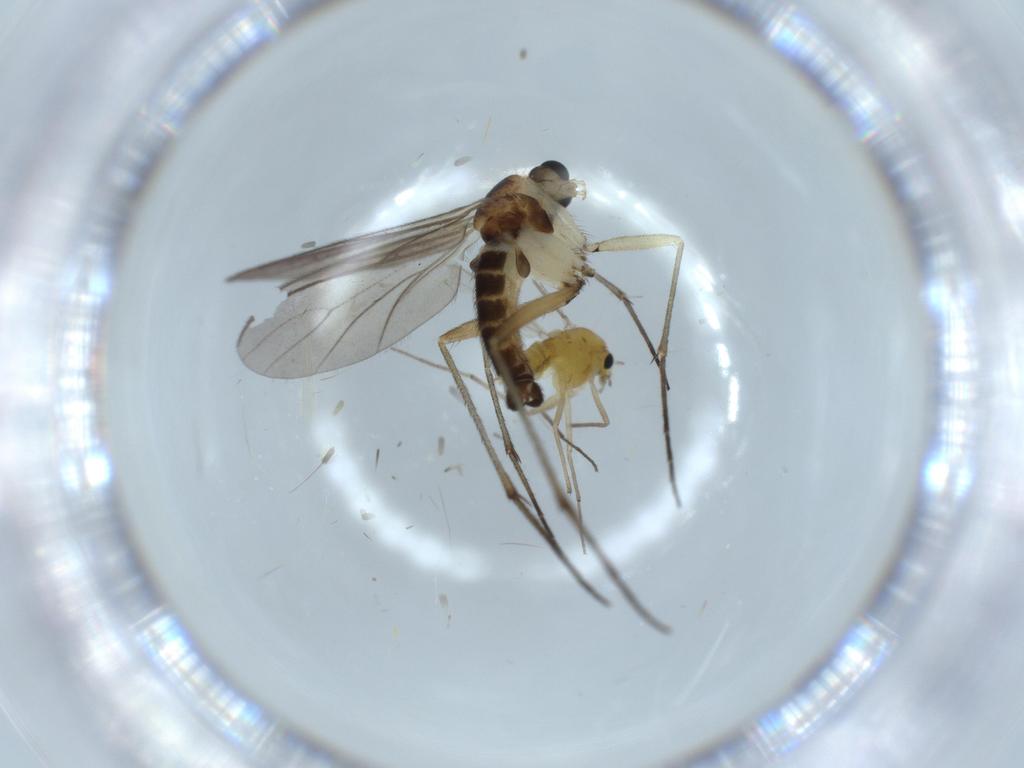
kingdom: Animalia
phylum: Arthropoda
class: Insecta
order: Diptera
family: Sciaridae
